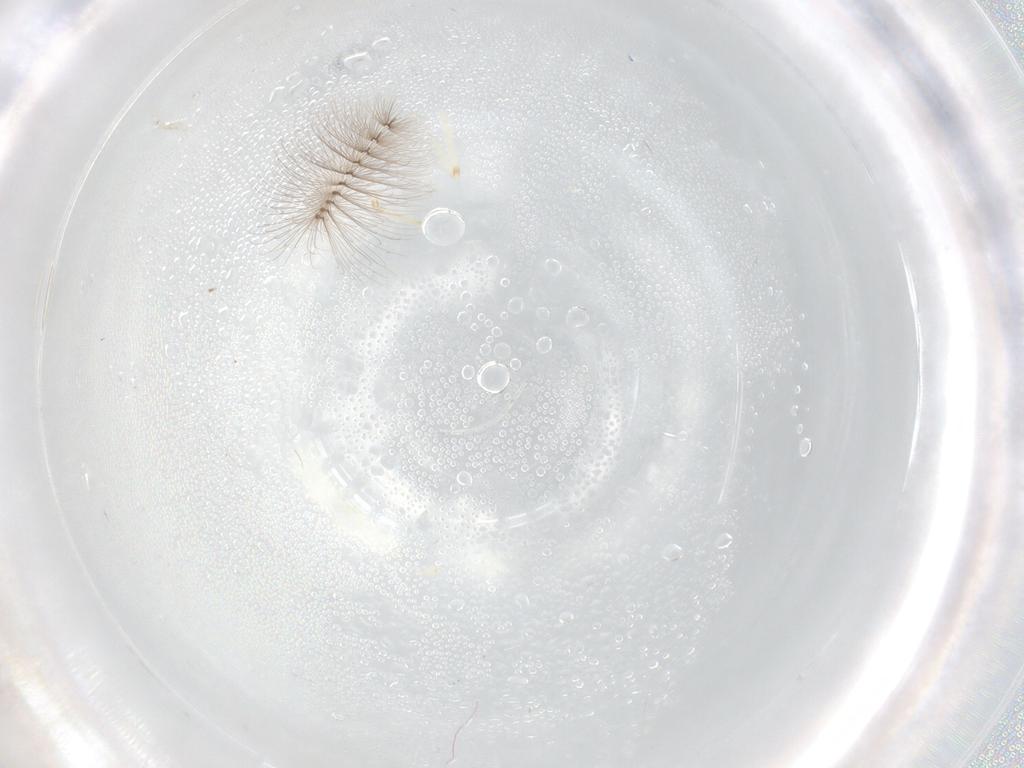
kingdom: Animalia
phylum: Arthropoda
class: Insecta
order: Diptera
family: Chironomidae
